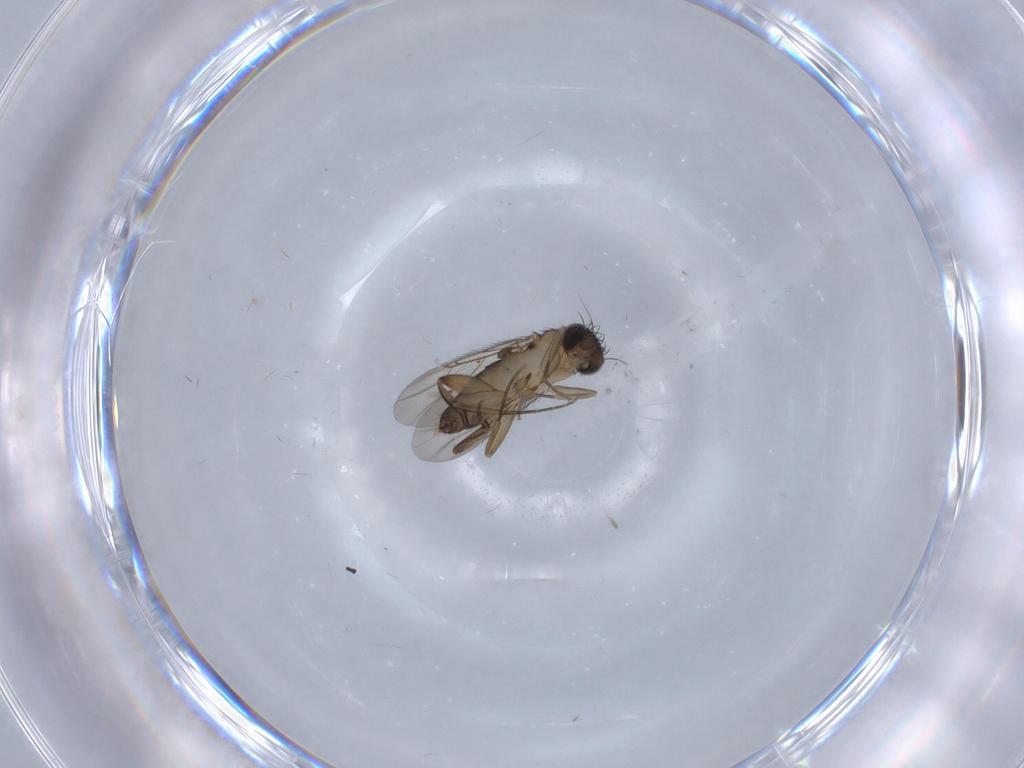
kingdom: Animalia
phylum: Arthropoda
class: Insecta
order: Diptera
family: Phoridae
